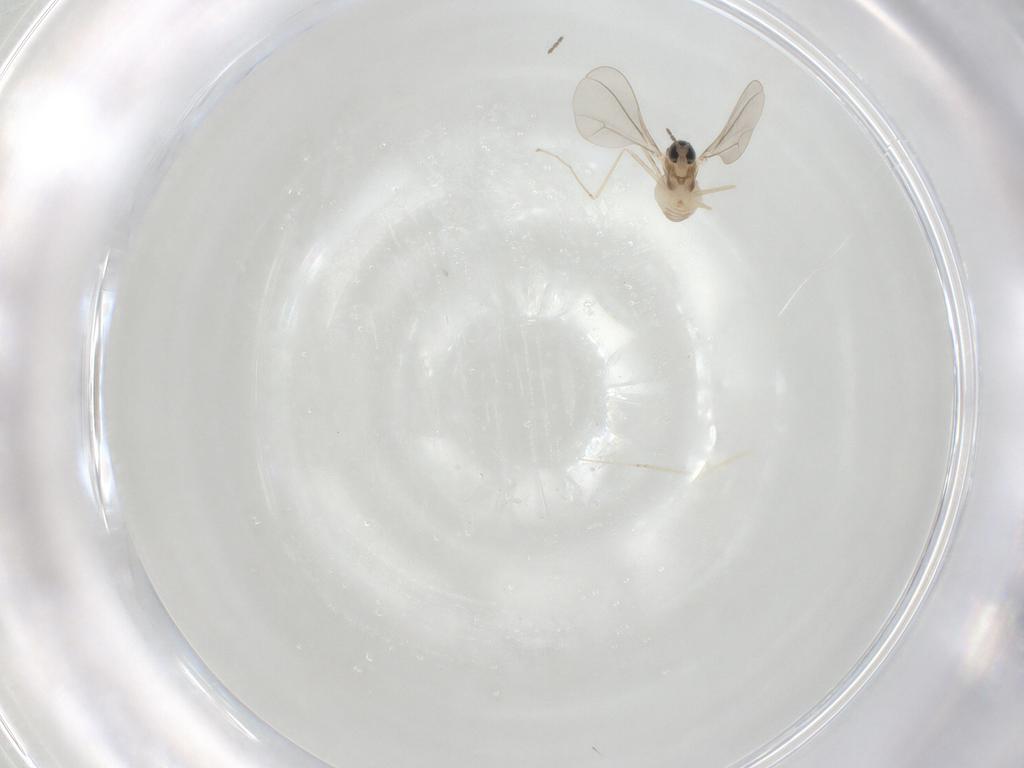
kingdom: Animalia
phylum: Arthropoda
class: Insecta
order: Diptera
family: Cecidomyiidae
